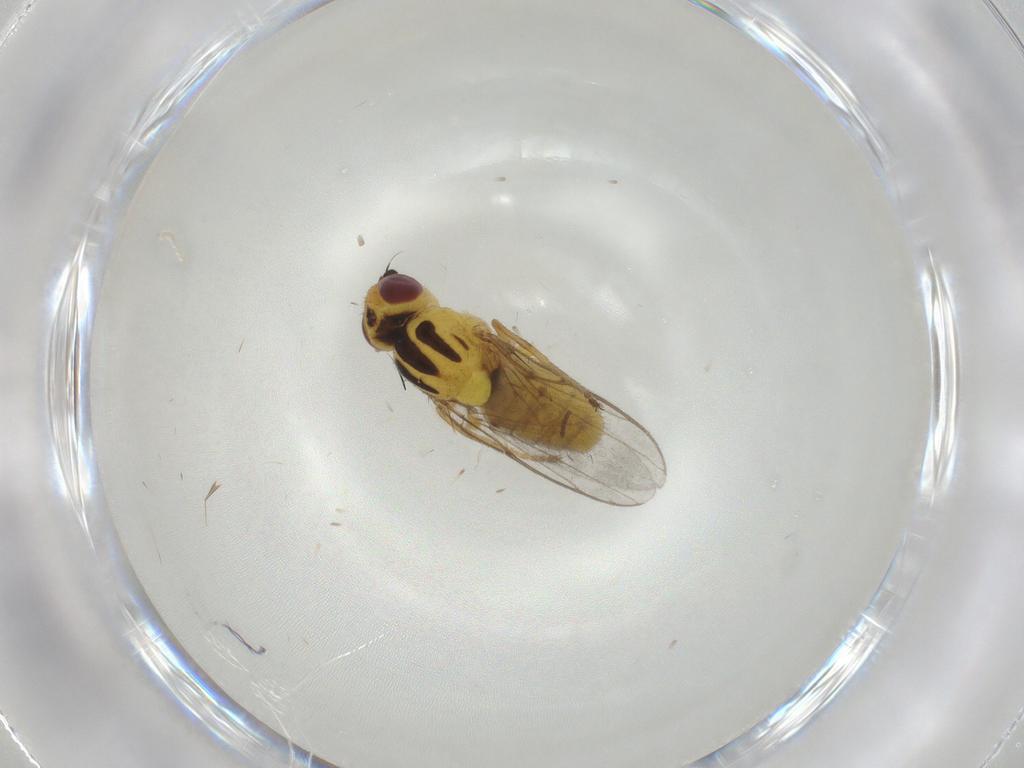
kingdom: Animalia
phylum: Arthropoda
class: Insecta
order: Diptera
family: Chloropidae
